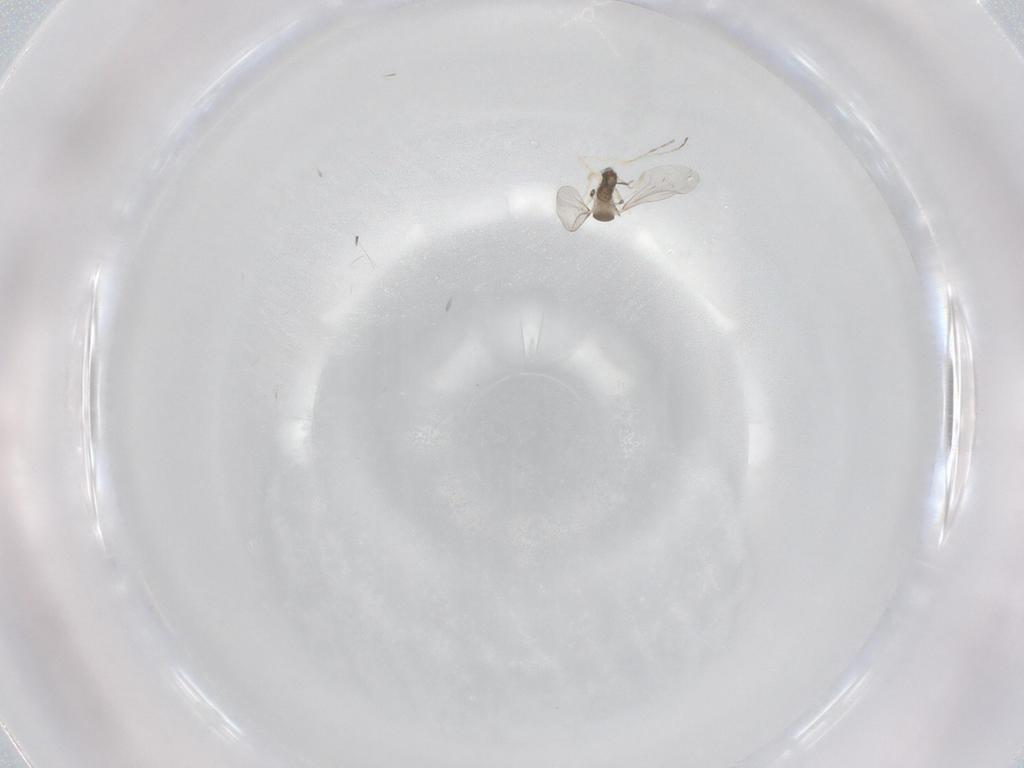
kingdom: Animalia
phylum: Arthropoda
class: Insecta
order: Diptera
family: Cecidomyiidae
